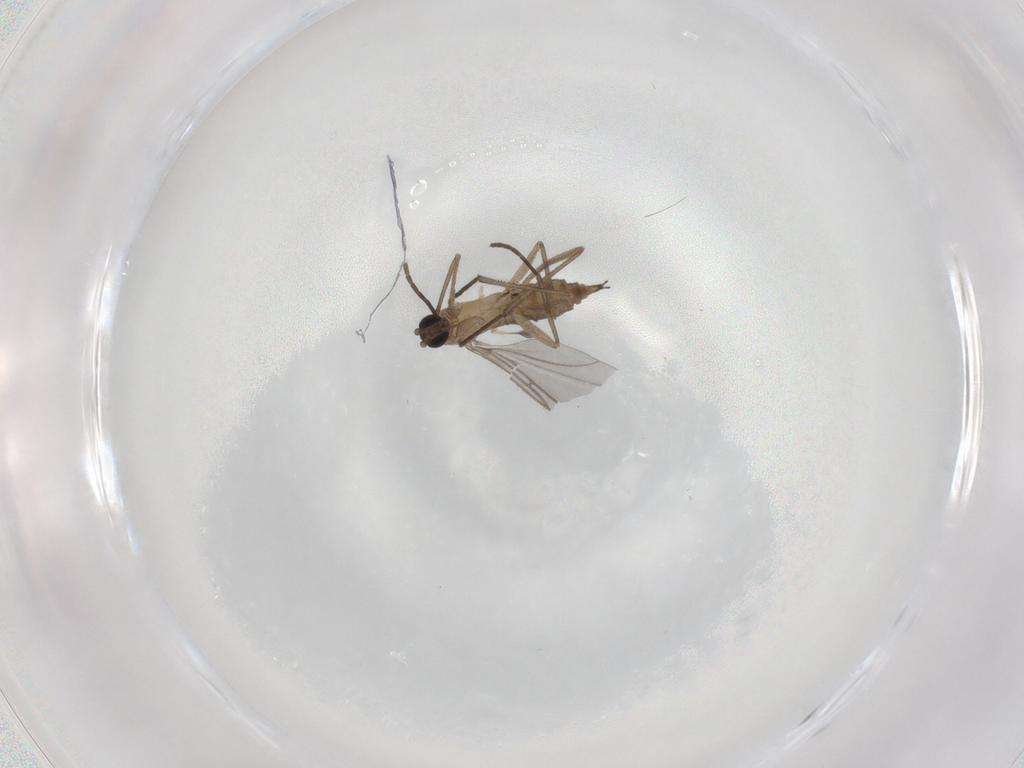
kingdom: Animalia
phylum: Arthropoda
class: Insecta
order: Diptera
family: Sciaridae
